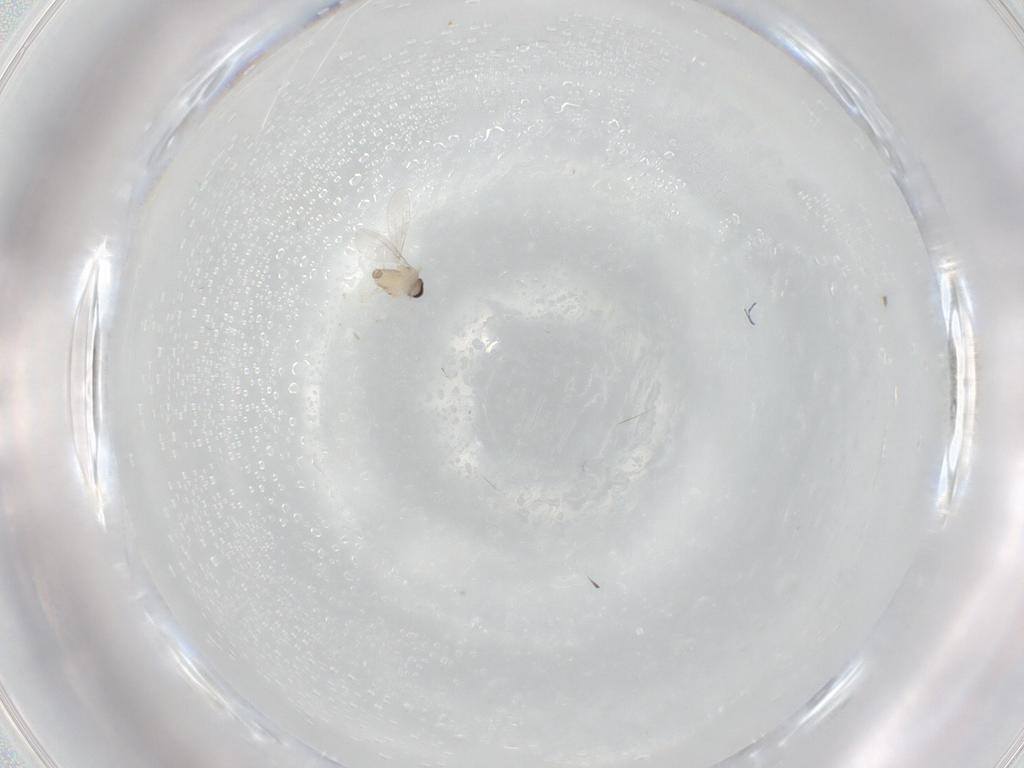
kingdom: Animalia
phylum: Arthropoda
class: Insecta
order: Diptera
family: Cecidomyiidae
